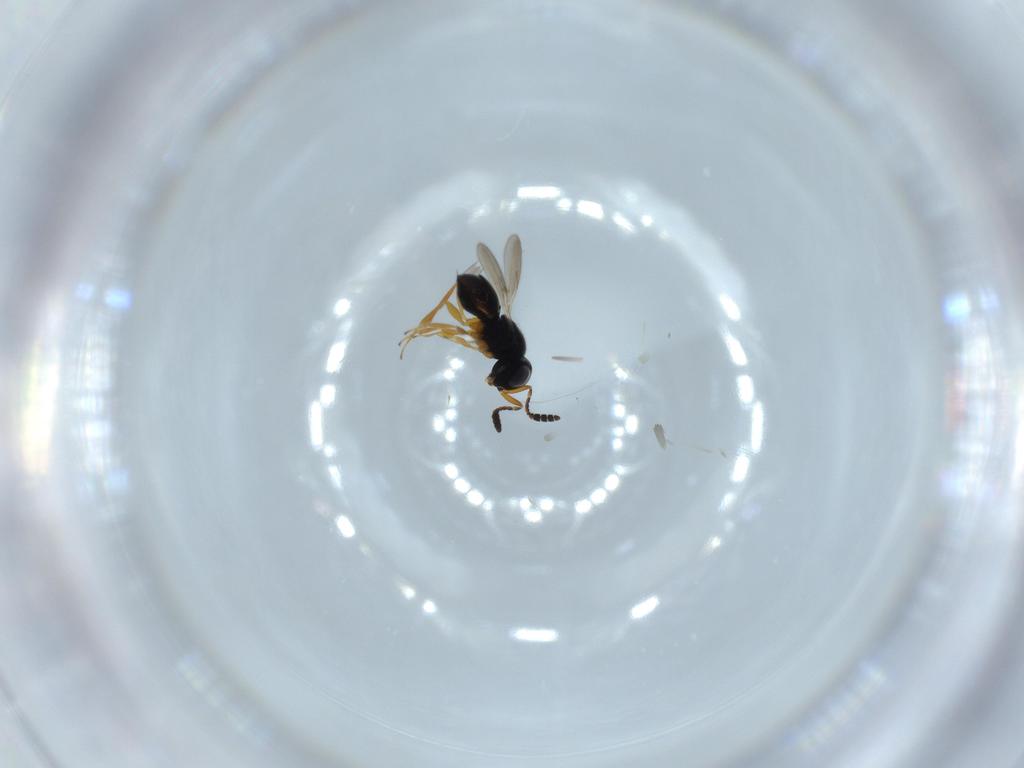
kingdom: Animalia
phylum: Arthropoda
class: Insecta
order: Hymenoptera
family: Scelionidae
